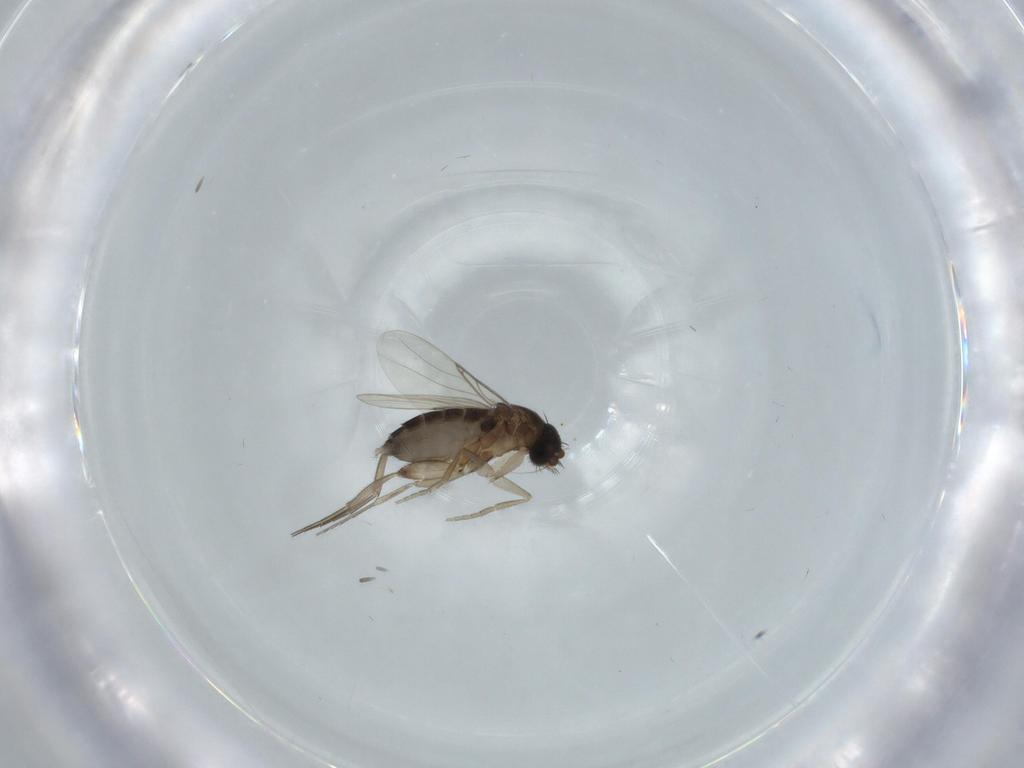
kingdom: Animalia
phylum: Arthropoda
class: Insecta
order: Diptera
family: Phoridae
